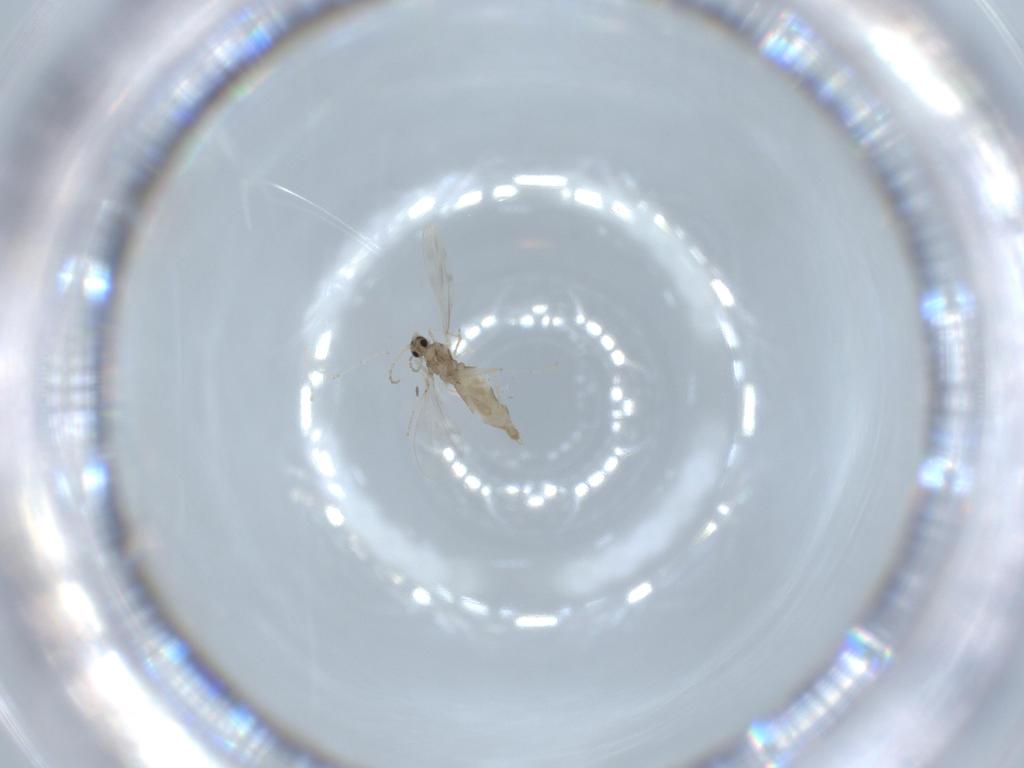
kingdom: Animalia
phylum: Arthropoda
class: Insecta
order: Diptera
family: Cecidomyiidae
